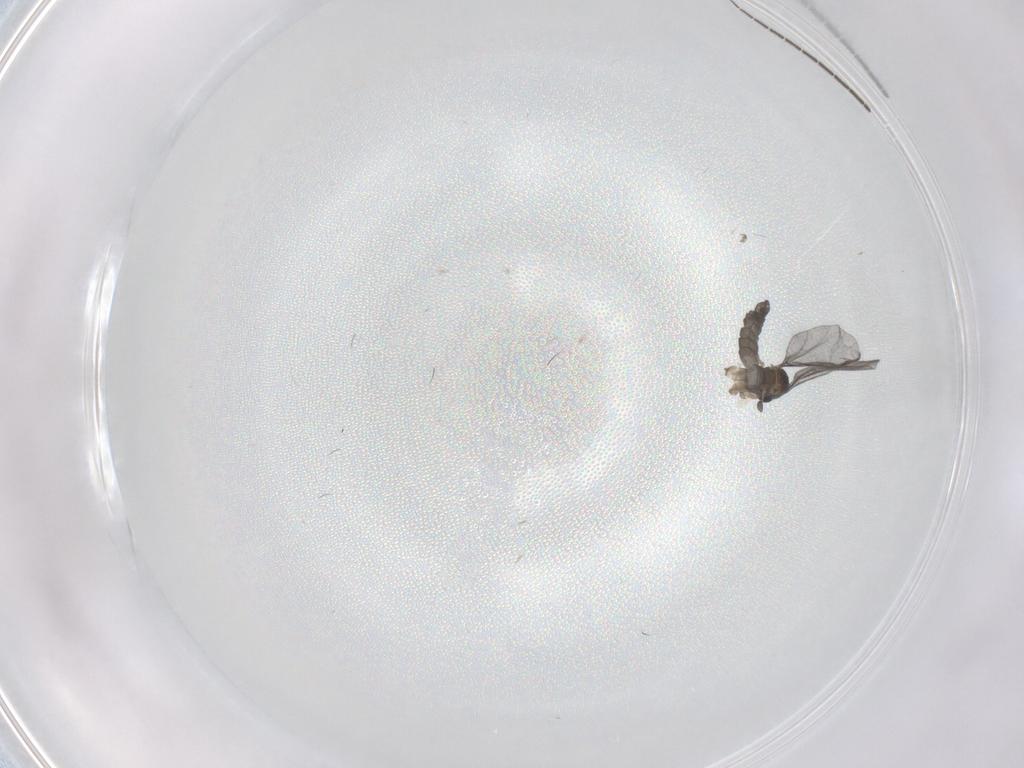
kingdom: Animalia
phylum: Arthropoda
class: Insecta
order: Diptera
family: Sciaridae
